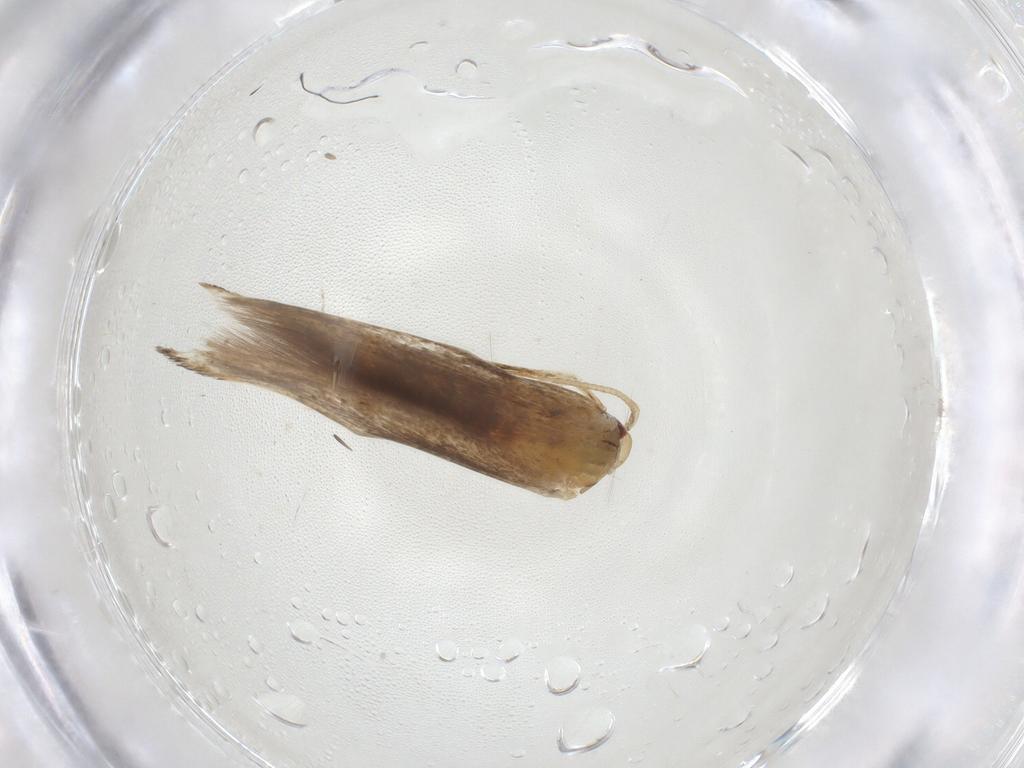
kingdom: Animalia
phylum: Arthropoda
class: Insecta
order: Lepidoptera
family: Cosmopterigidae
